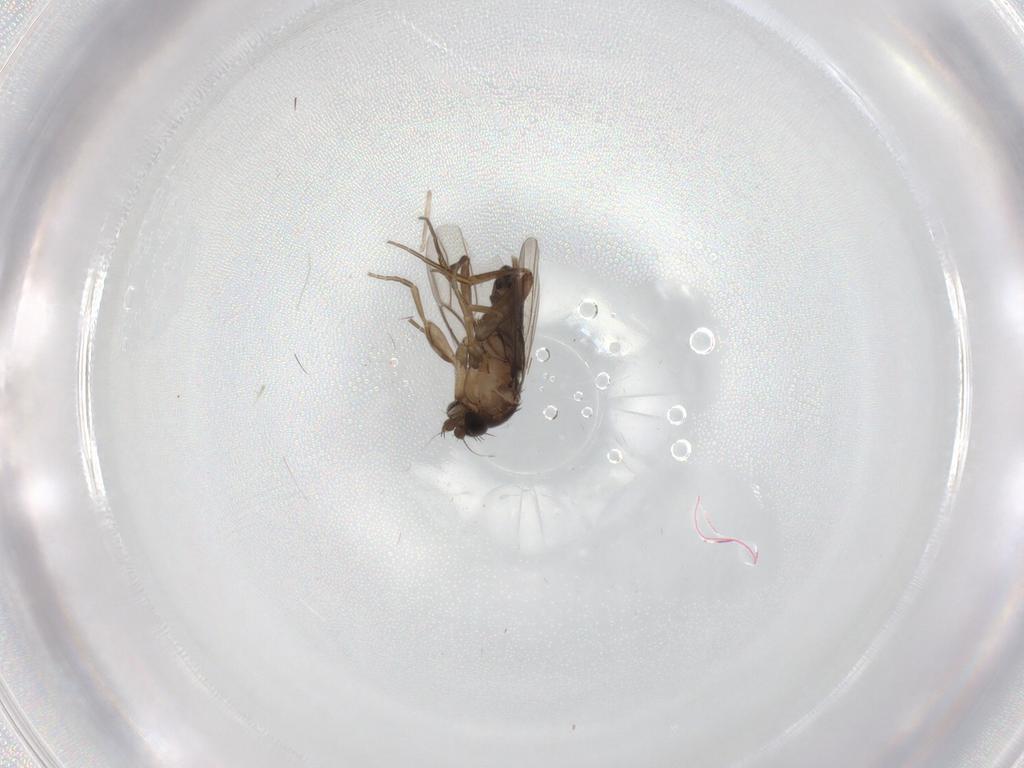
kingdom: Animalia
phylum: Arthropoda
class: Insecta
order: Diptera
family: Phoridae
